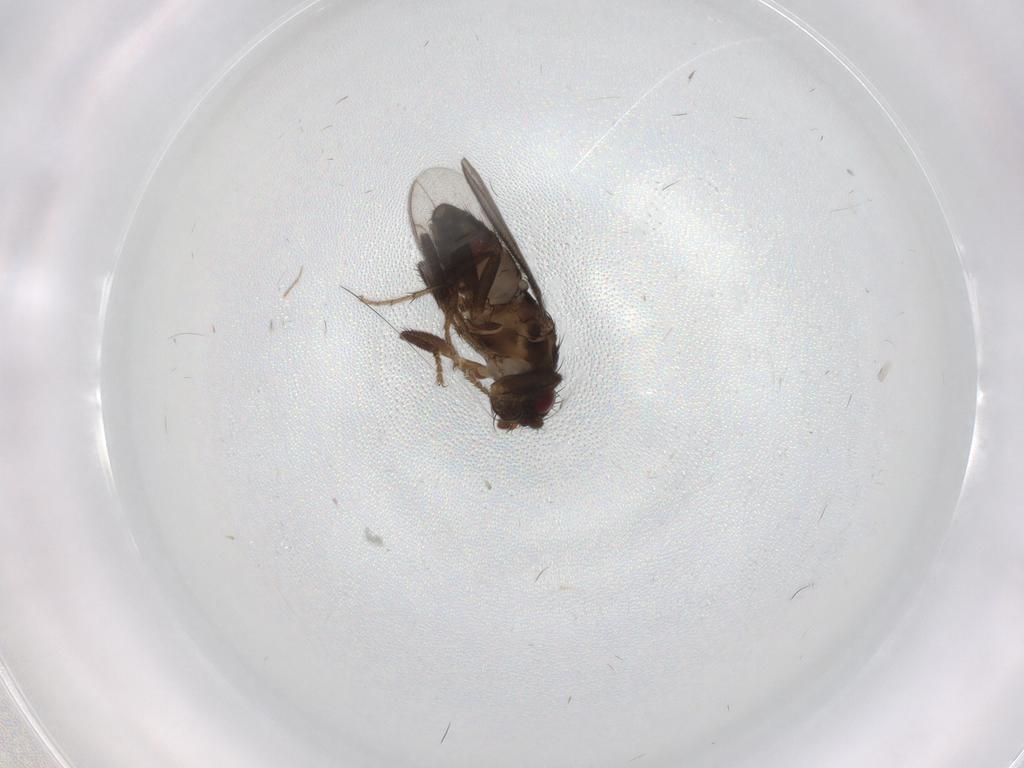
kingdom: Animalia
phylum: Arthropoda
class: Insecta
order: Diptera
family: Sphaeroceridae
